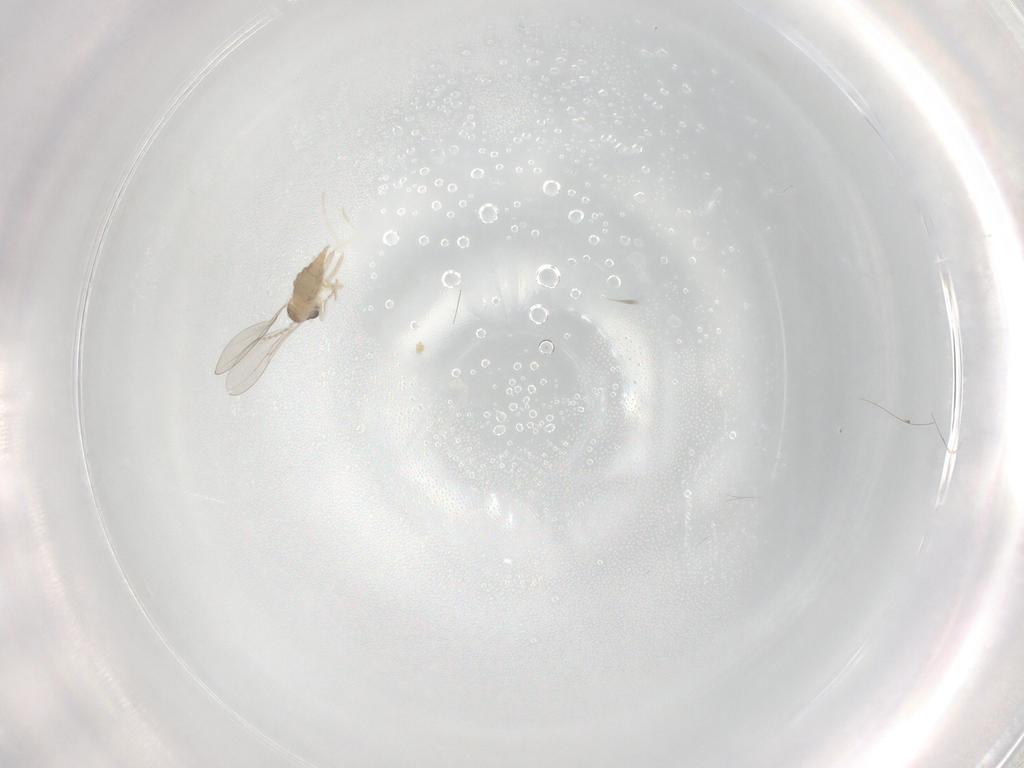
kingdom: Animalia
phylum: Arthropoda
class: Insecta
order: Diptera
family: Cecidomyiidae
